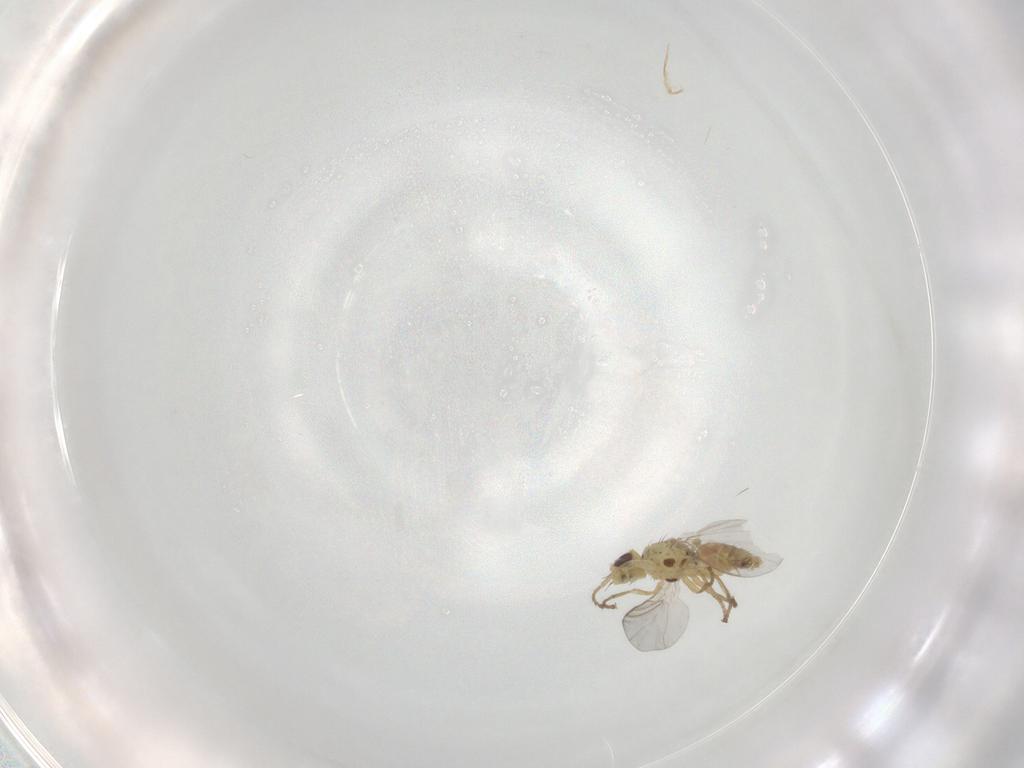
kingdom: Animalia
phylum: Arthropoda
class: Insecta
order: Diptera
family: Agromyzidae
